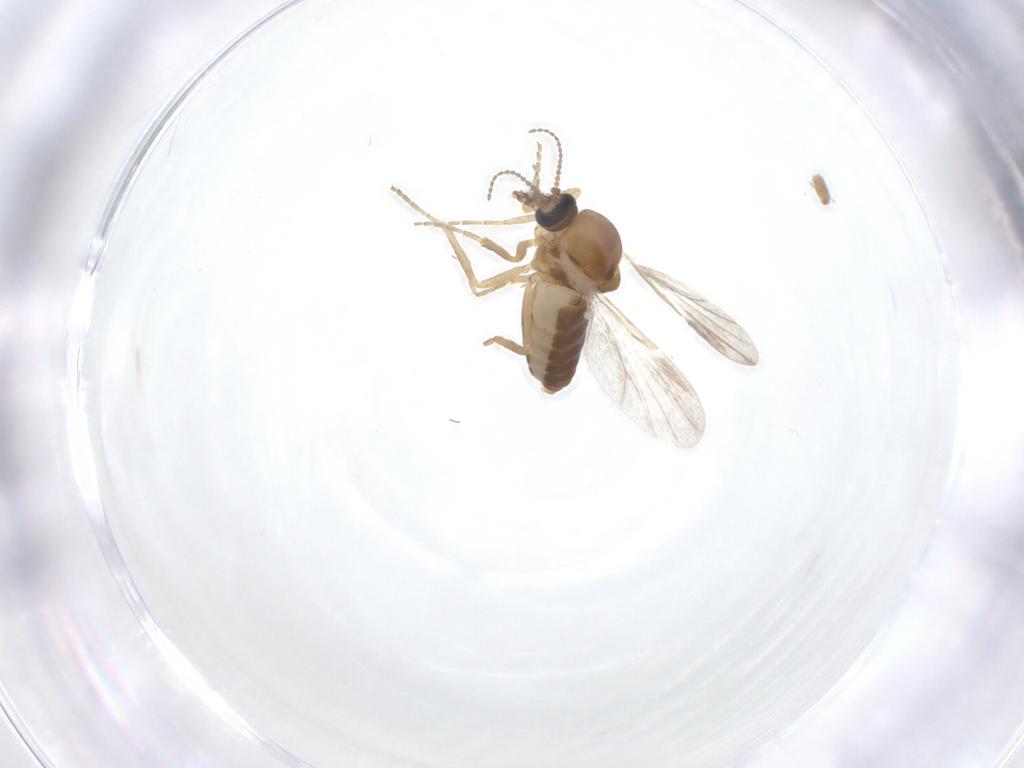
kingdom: Animalia
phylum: Arthropoda
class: Insecta
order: Diptera
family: Ceratopogonidae
